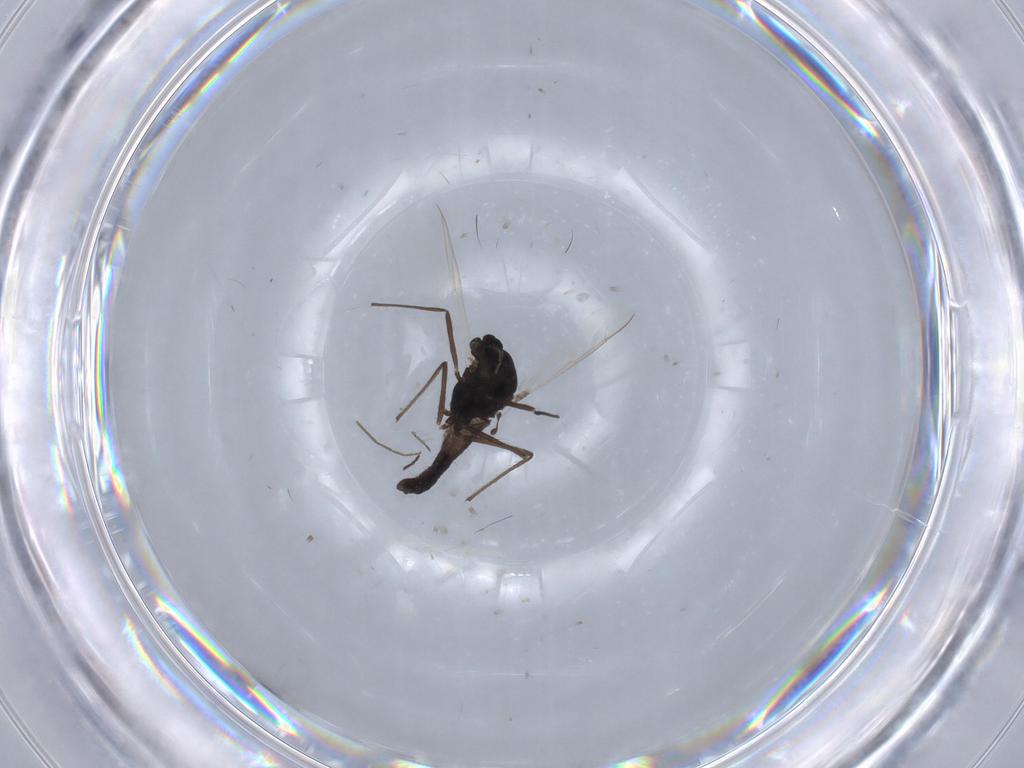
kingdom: Animalia
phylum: Arthropoda
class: Insecta
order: Diptera
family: Chironomidae
